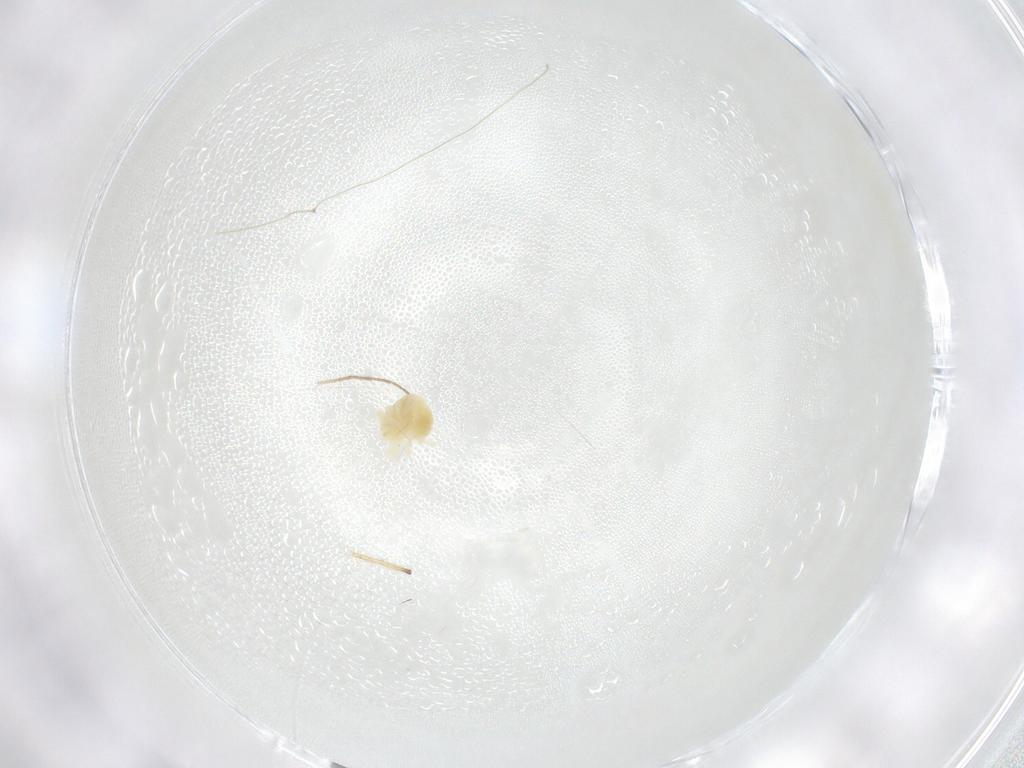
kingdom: Animalia
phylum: Arthropoda
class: Arachnida
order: Trombidiformes
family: Anystidae
